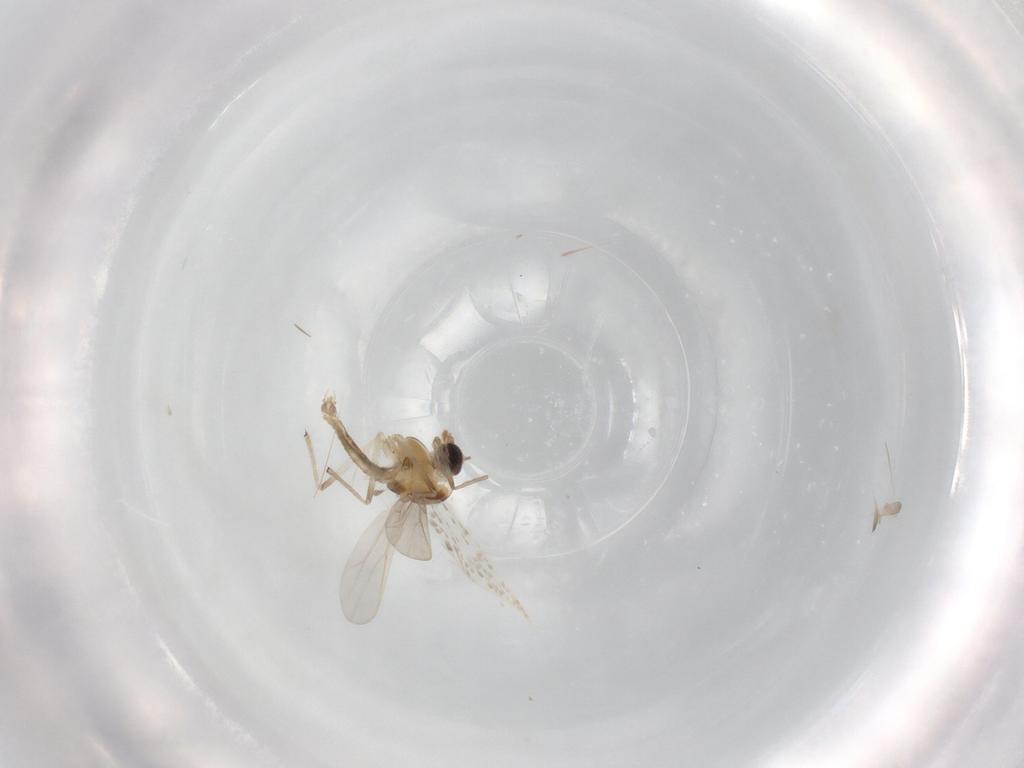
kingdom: Animalia
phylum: Arthropoda
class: Insecta
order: Diptera
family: Chironomidae
